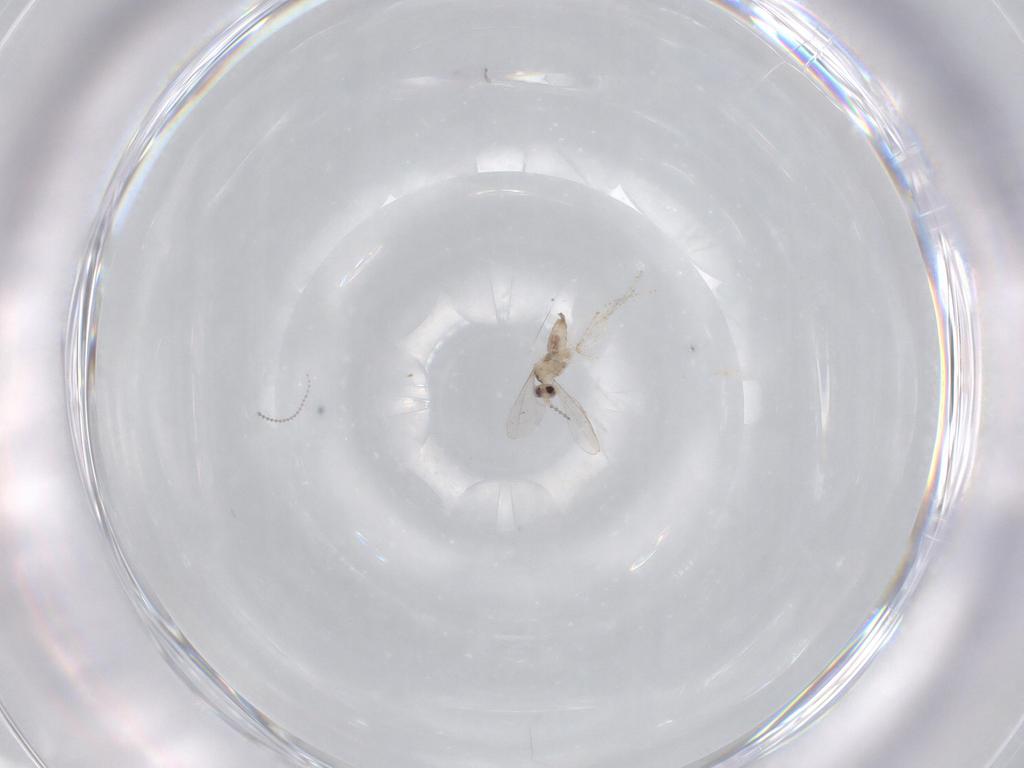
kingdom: Animalia
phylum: Arthropoda
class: Insecta
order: Diptera
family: Cecidomyiidae
